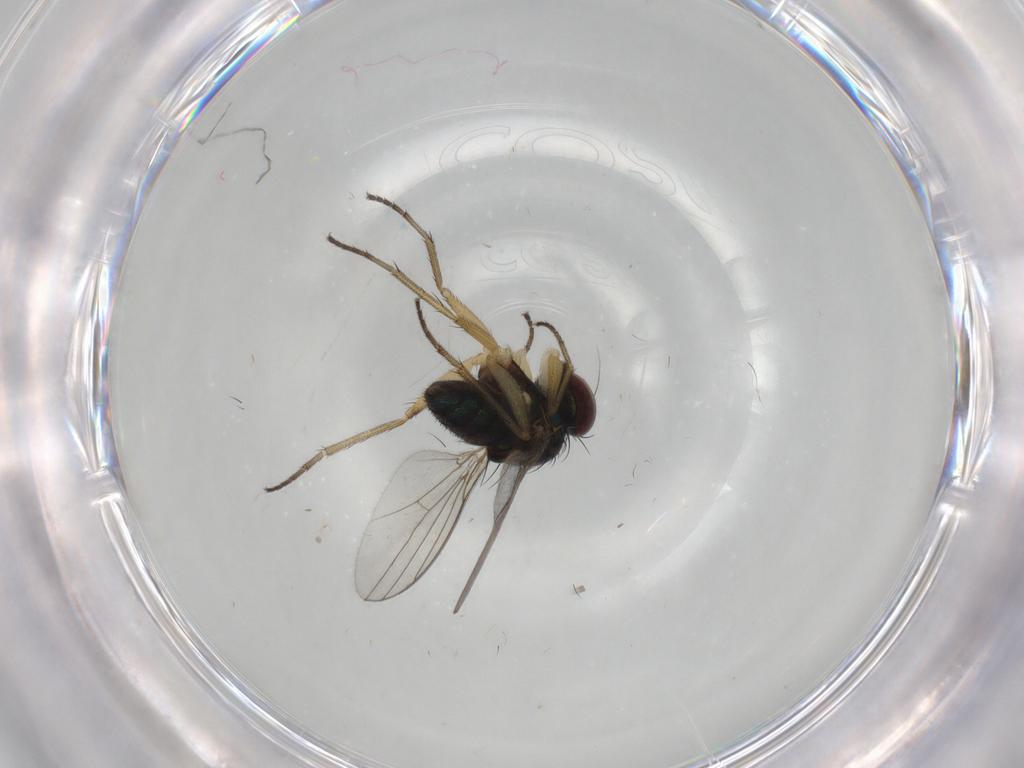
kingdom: Animalia
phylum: Arthropoda
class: Insecta
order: Diptera
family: Dolichopodidae
